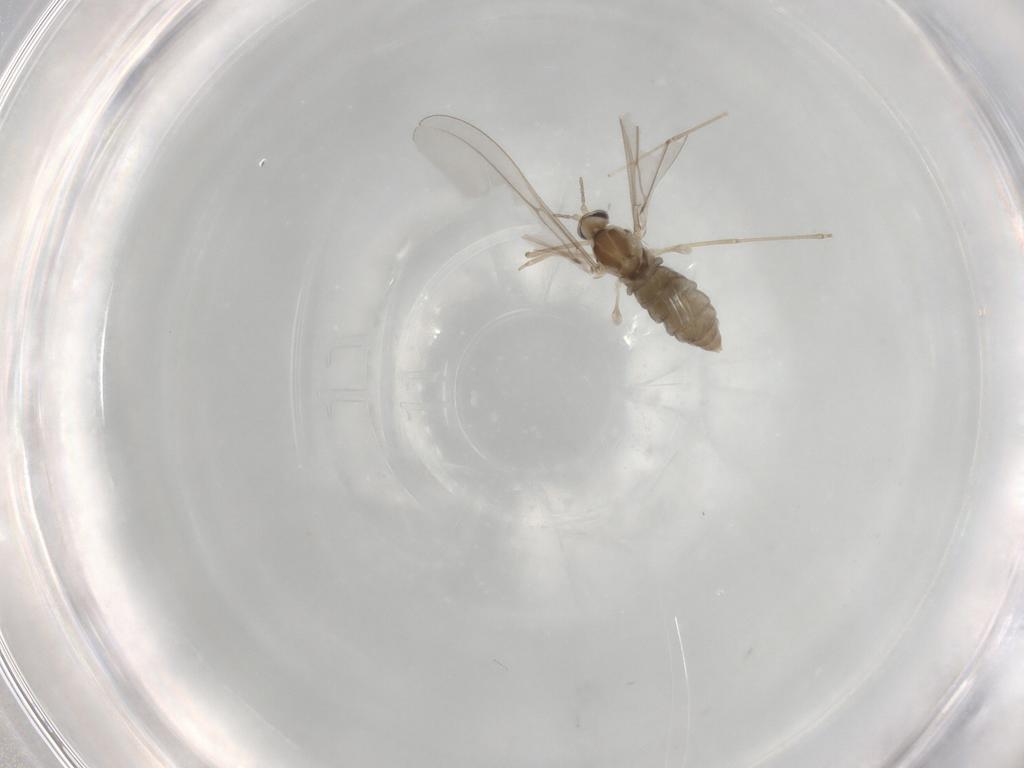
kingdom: Animalia
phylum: Arthropoda
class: Insecta
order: Diptera
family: Cecidomyiidae
